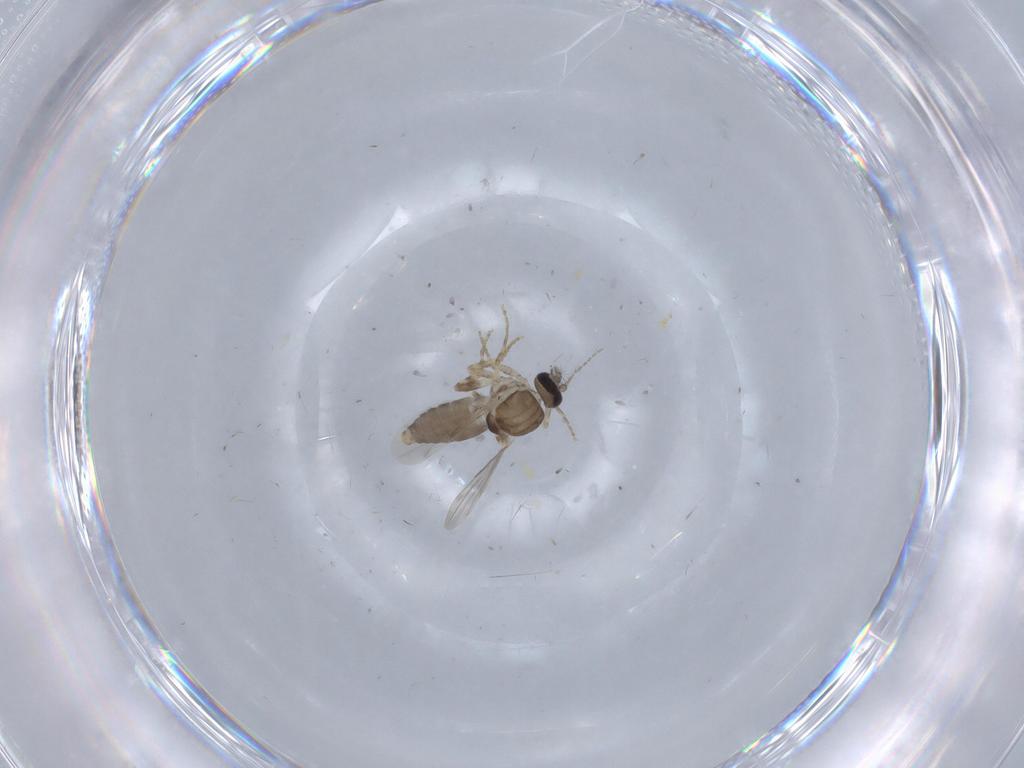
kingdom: Animalia
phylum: Arthropoda
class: Insecta
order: Diptera
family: Ceratopogonidae
